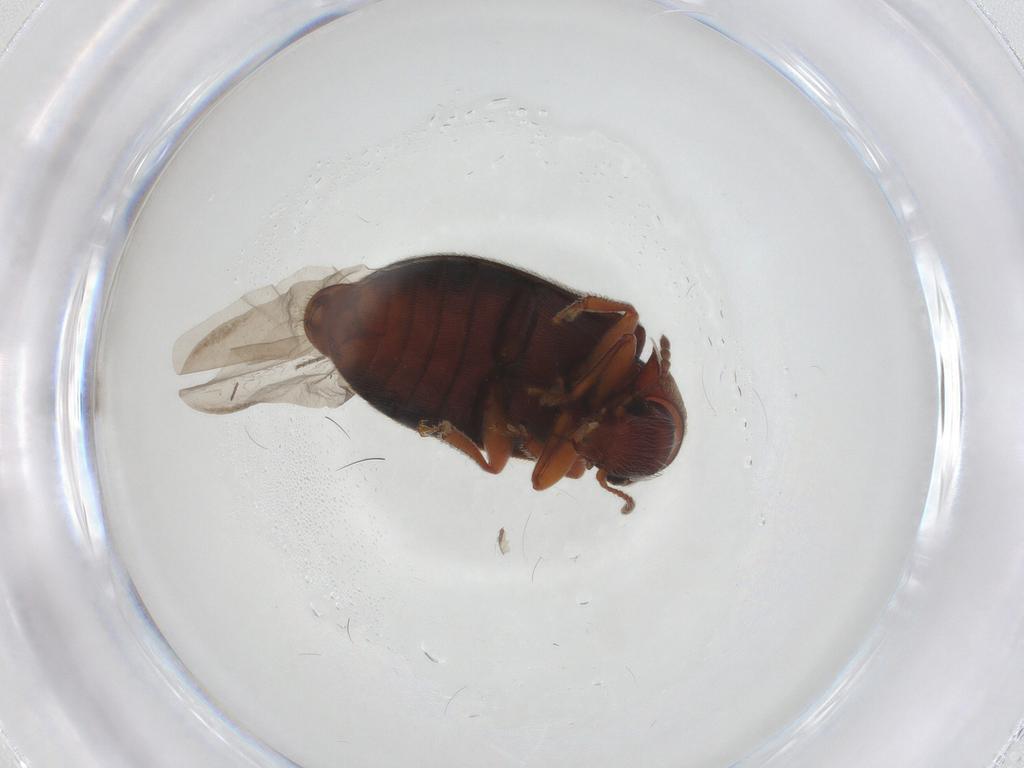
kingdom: Animalia
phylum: Arthropoda
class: Insecta
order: Coleoptera
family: Byturidae
